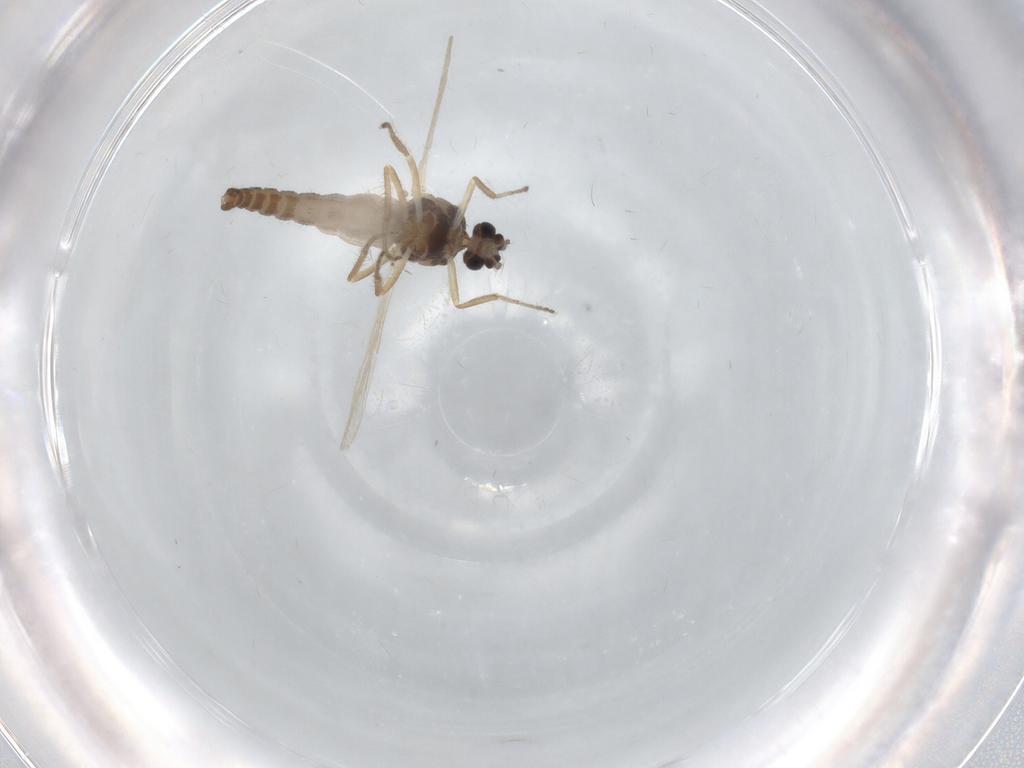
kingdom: Animalia
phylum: Arthropoda
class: Insecta
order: Diptera
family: Ceratopogonidae
